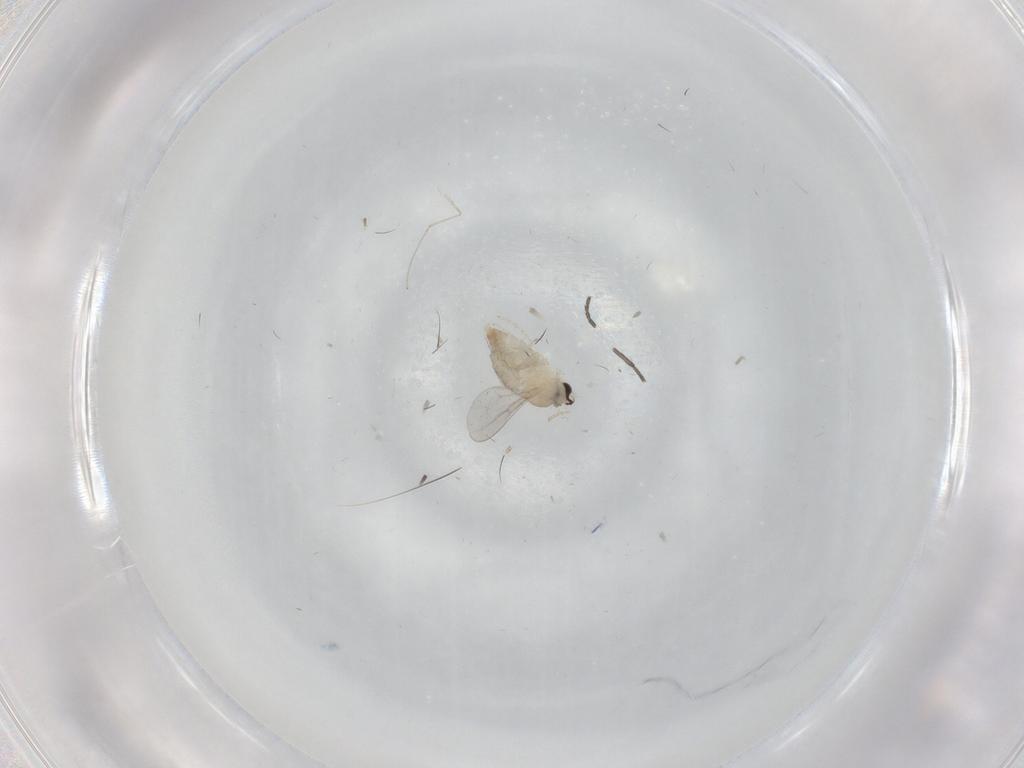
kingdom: Animalia
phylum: Arthropoda
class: Insecta
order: Diptera
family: Cecidomyiidae
